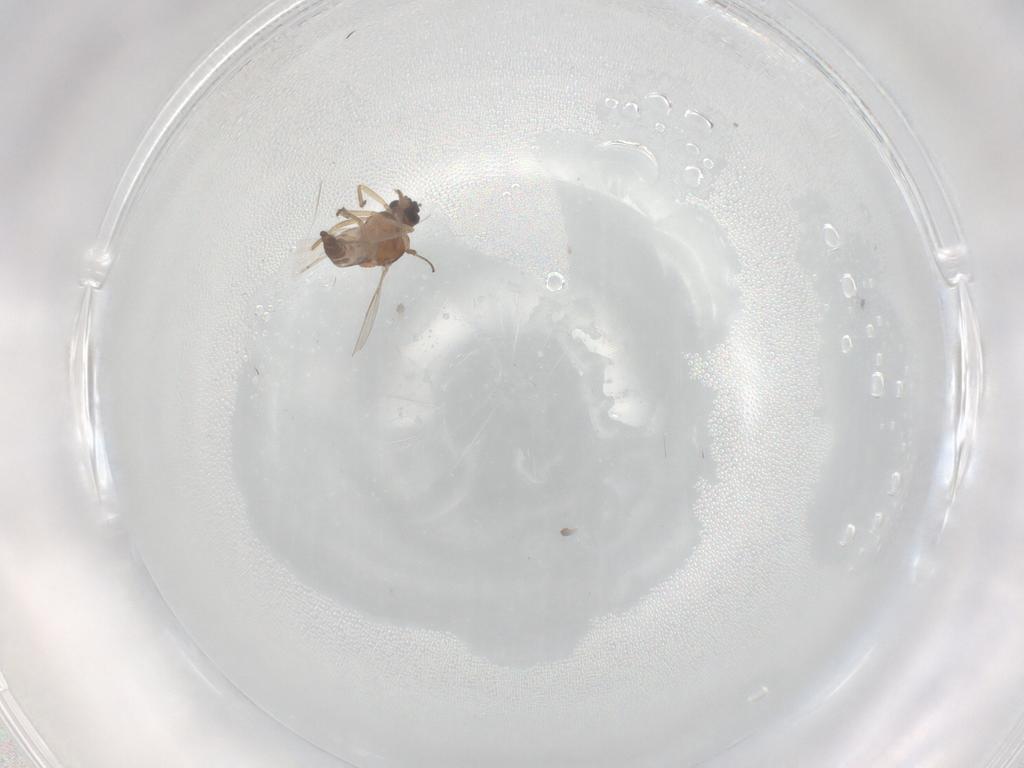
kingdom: Animalia
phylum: Arthropoda
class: Insecta
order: Diptera
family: Ceratopogonidae
